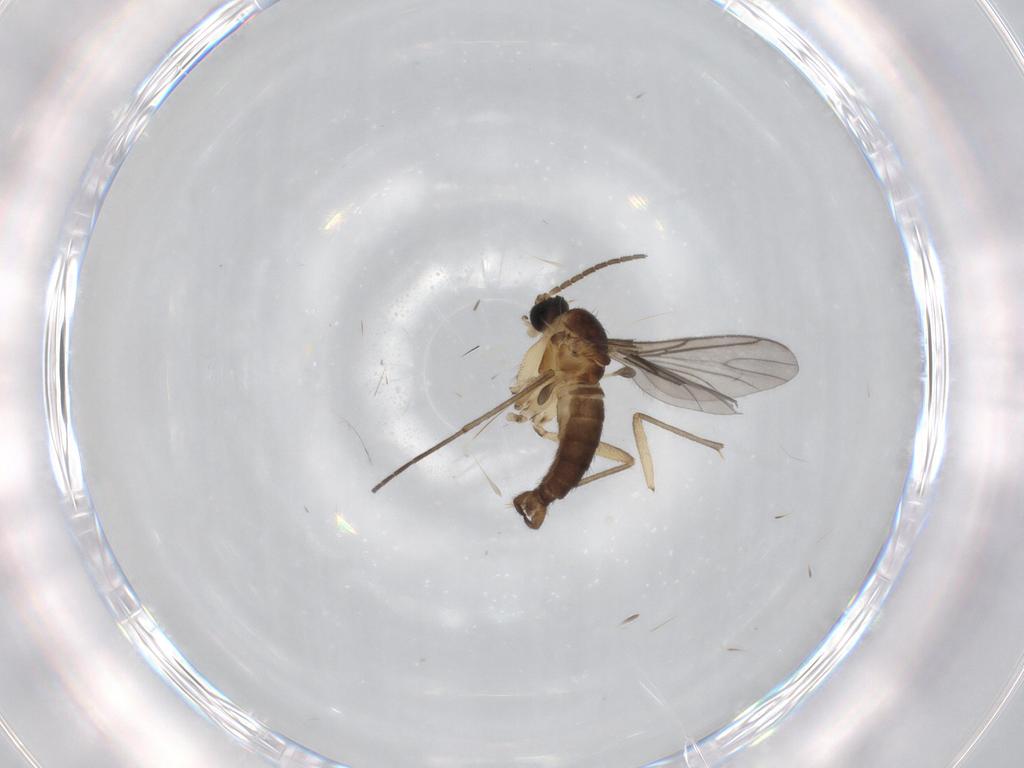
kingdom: Animalia
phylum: Arthropoda
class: Insecta
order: Diptera
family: Sciaridae
